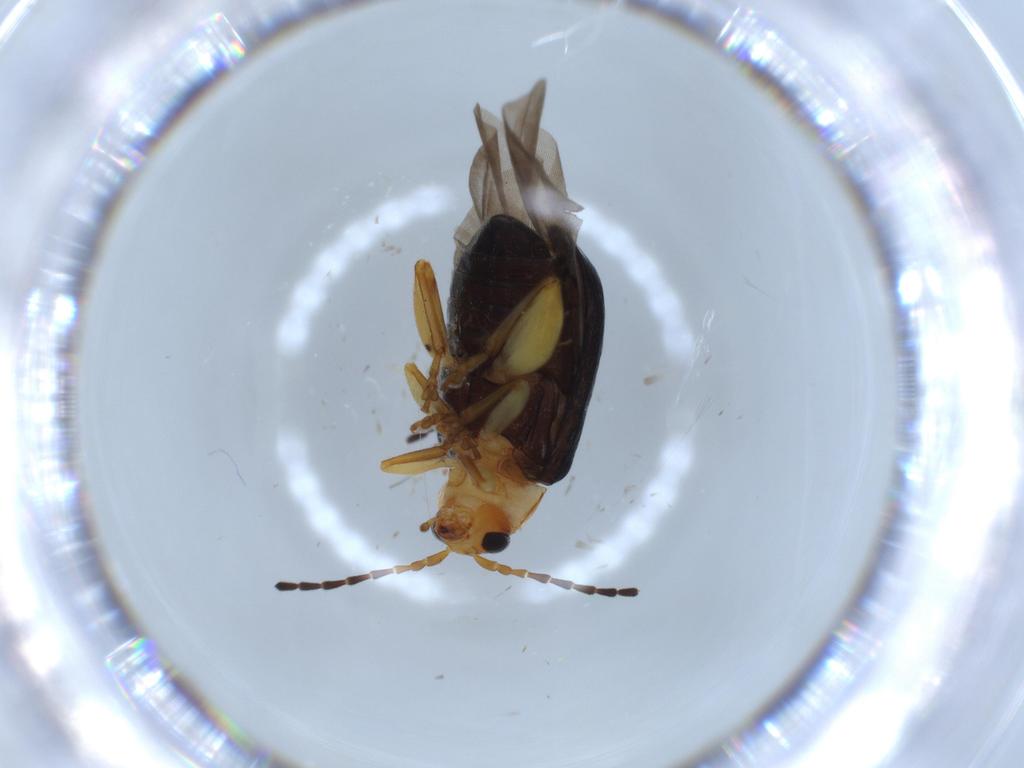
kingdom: Animalia
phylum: Arthropoda
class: Insecta
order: Coleoptera
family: Chrysomelidae
